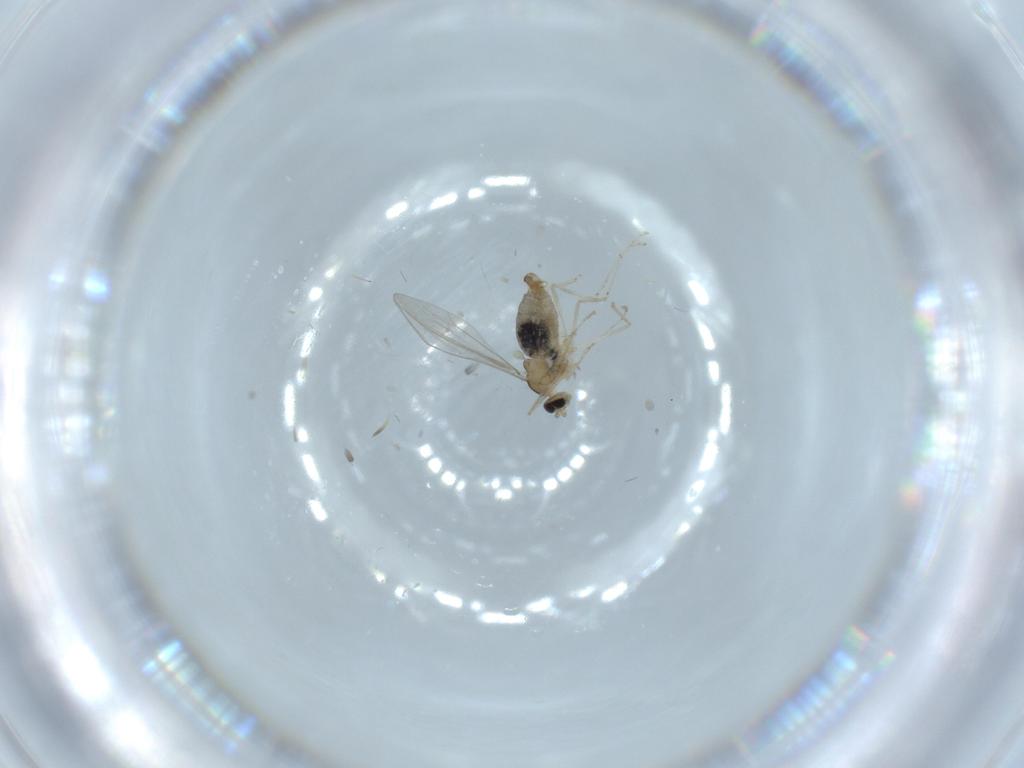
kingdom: Animalia
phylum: Arthropoda
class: Insecta
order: Diptera
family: Cecidomyiidae
